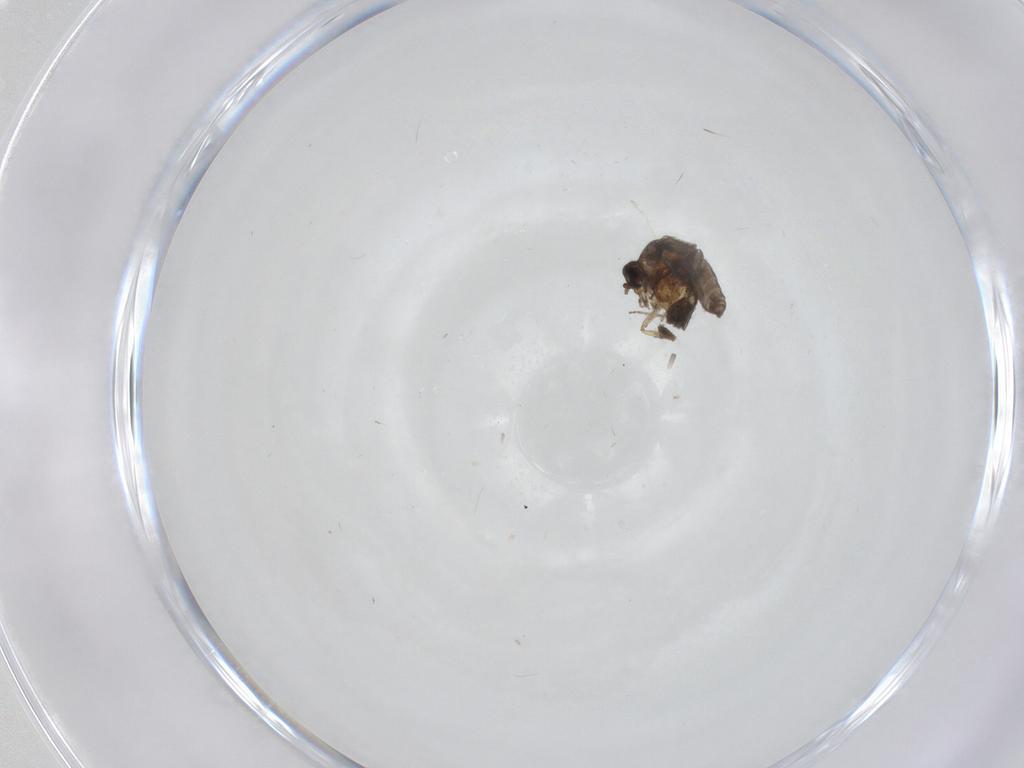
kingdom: Animalia
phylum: Arthropoda
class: Insecta
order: Diptera
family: Ceratopogonidae
